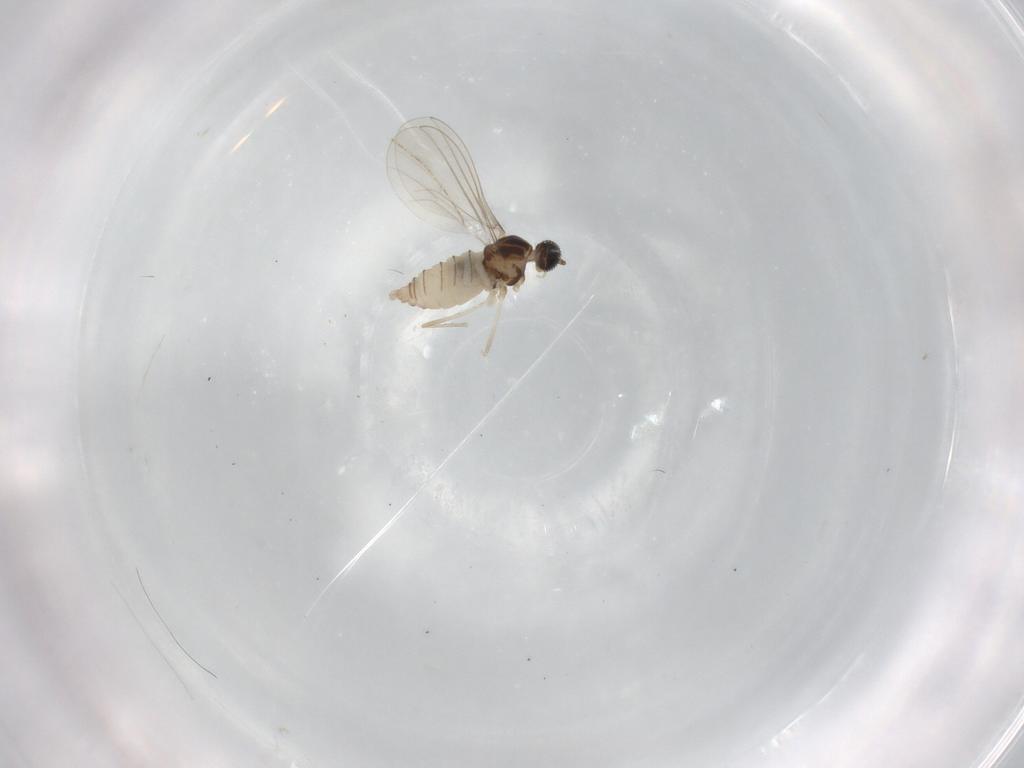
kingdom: Animalia
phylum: Arthropoda
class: Insecta
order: Diptera
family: Cecidomyiidae
